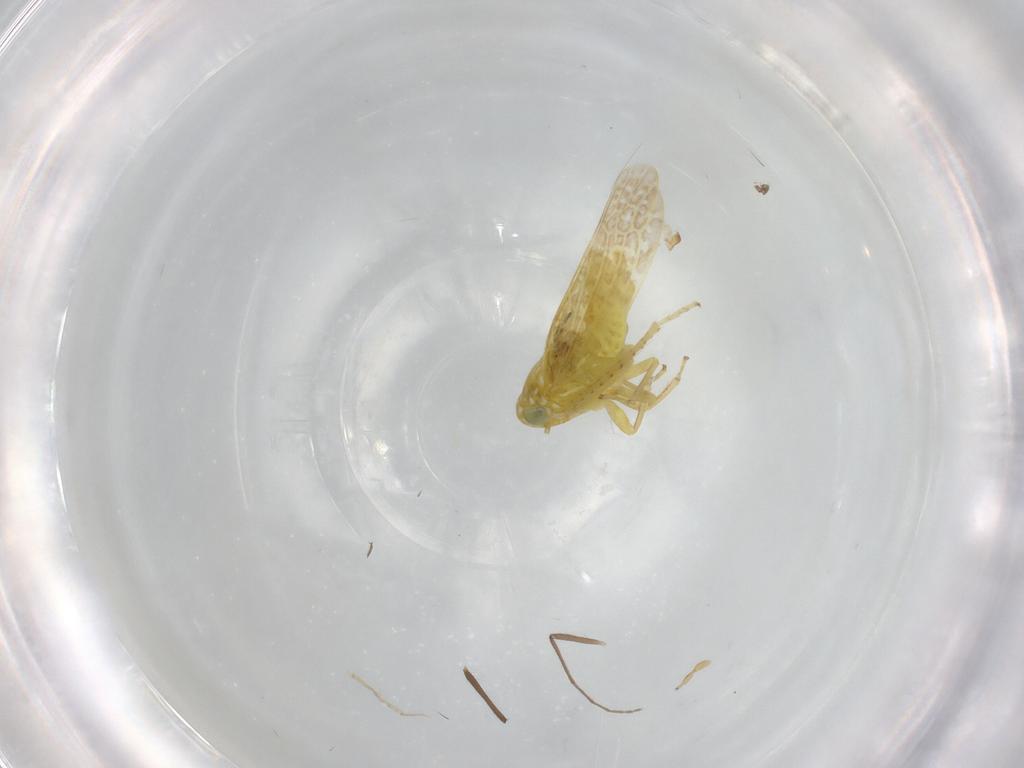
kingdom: Animalia
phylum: Arthropoda
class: Insecta
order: Hemiptera
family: Cicadellidae
